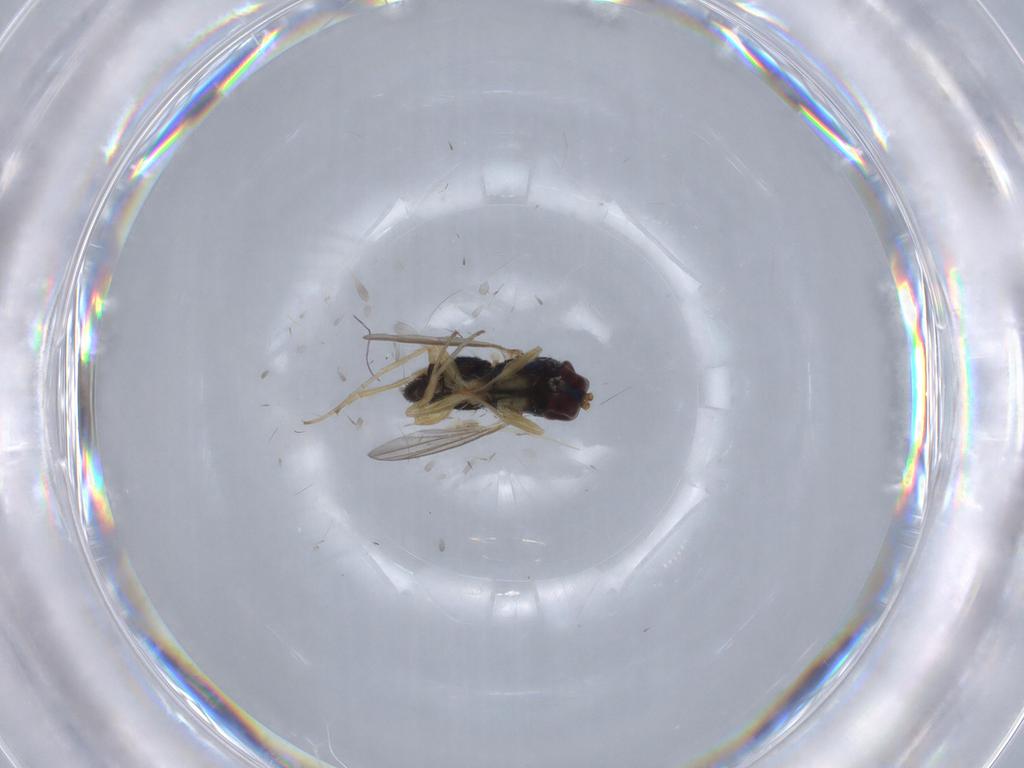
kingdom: Animalia
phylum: Arthropoda
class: Insecta
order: Diptera
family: Dolichopodidae
